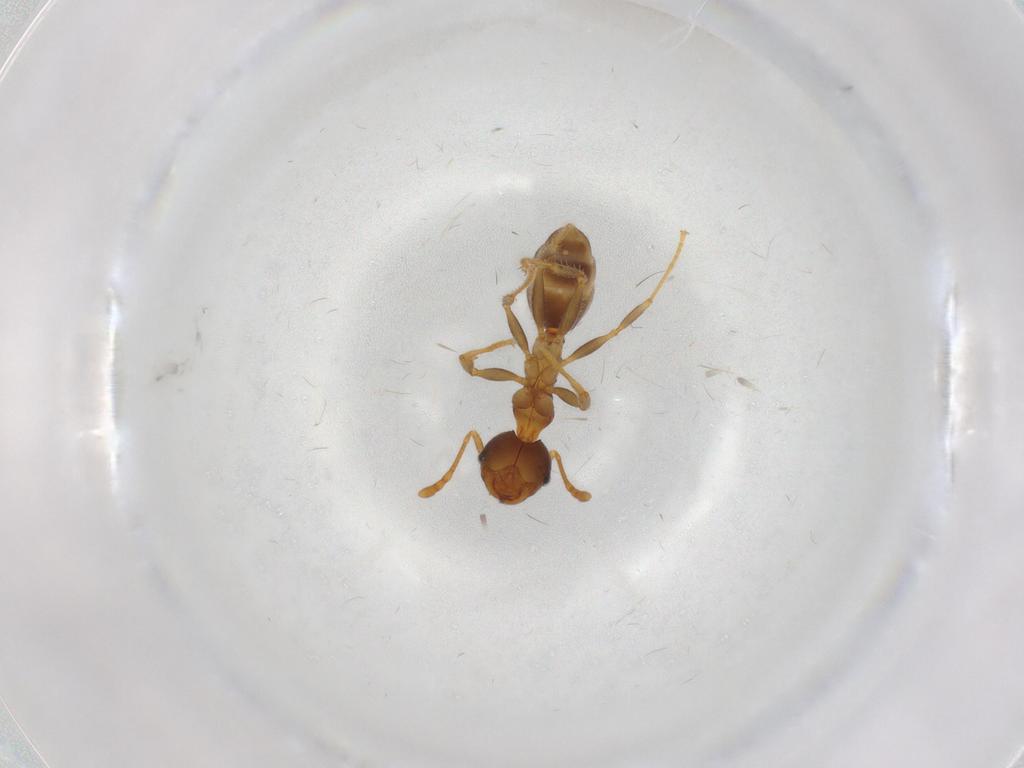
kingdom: Animalia
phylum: Arthropoda
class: Insecta
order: Hymenoptera
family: Formicidae
